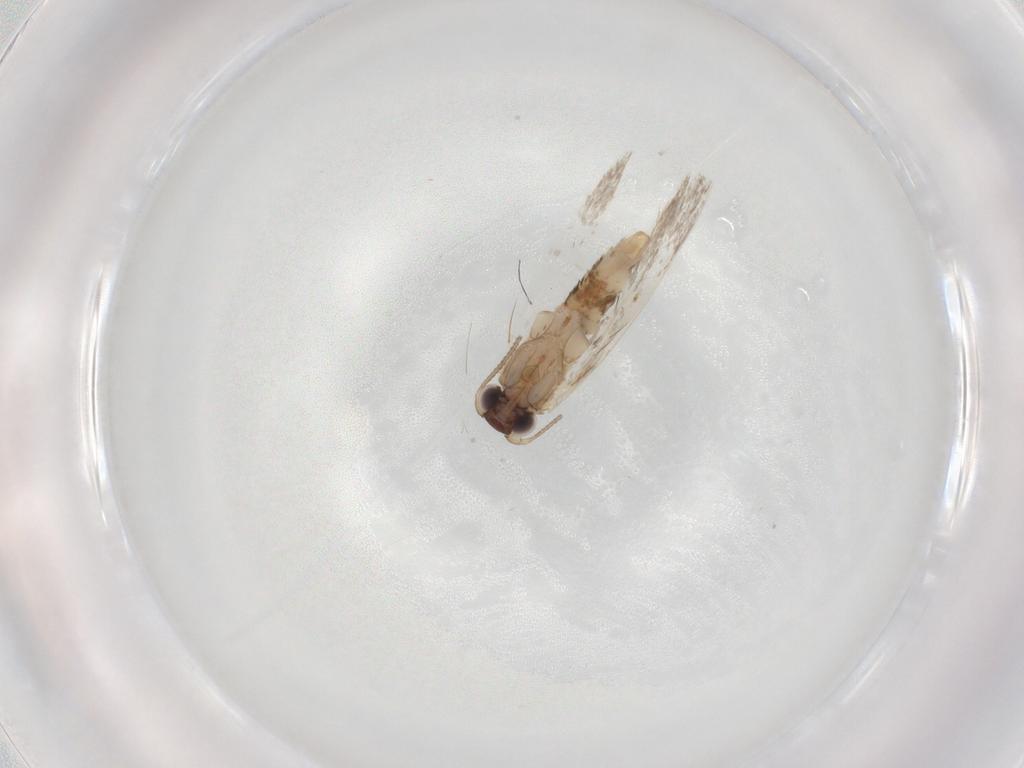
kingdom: Animalia
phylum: Arthropoda
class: Insecta
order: Lepidoptera
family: Tineidae
